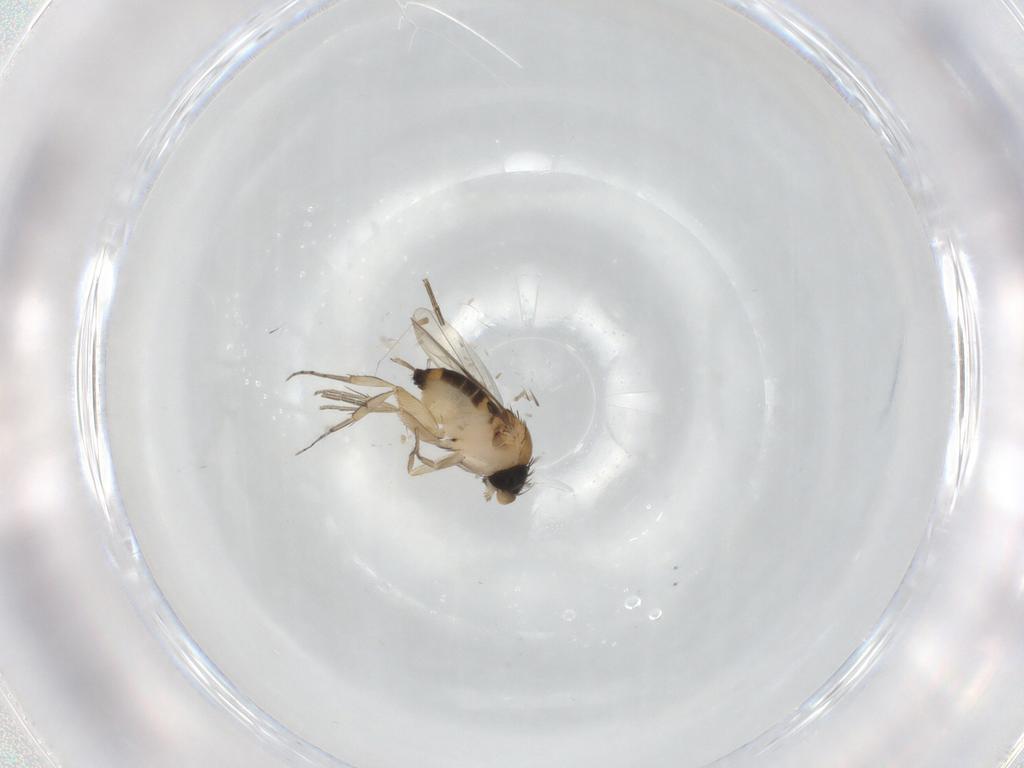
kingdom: Animalia
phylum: Arthropoda
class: Insecta
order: Diptera
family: Phoridae
